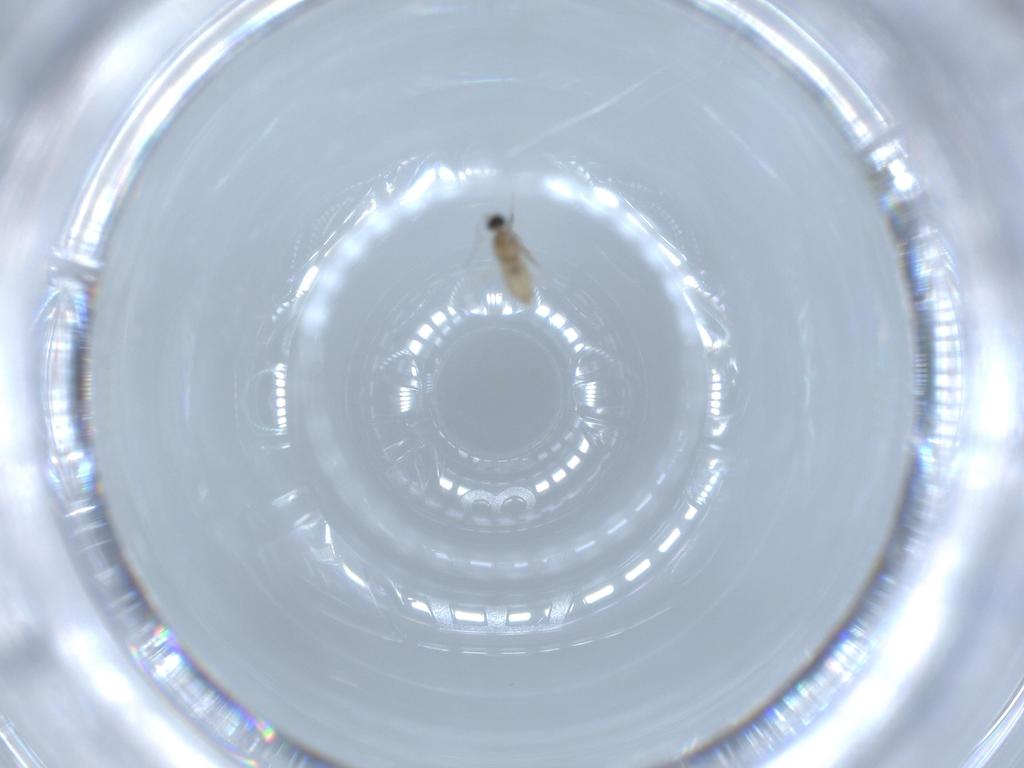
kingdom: Animalia
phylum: Arthropoda
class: Insecta
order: Diptera
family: Cecidomyiidae
